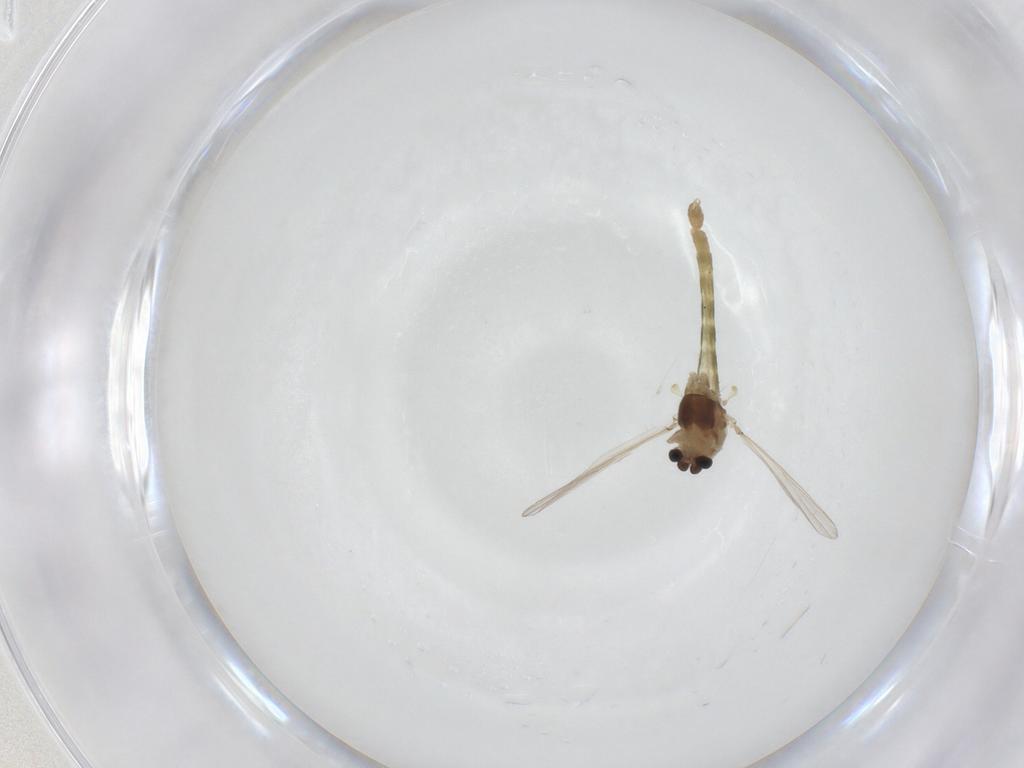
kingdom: Animalia
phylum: Arthropoda
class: Insecta
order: Diptera
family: Chironomidae
